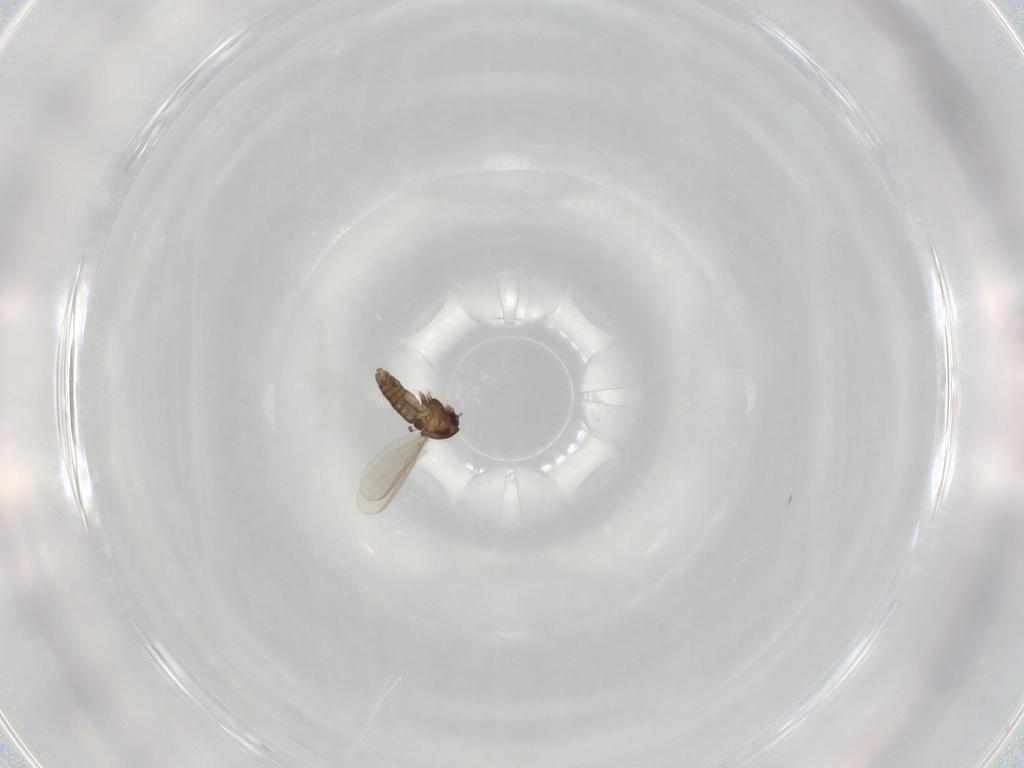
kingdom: Animalia
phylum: Arthropoda
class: Insecta
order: Diptera
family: Chironomidae
